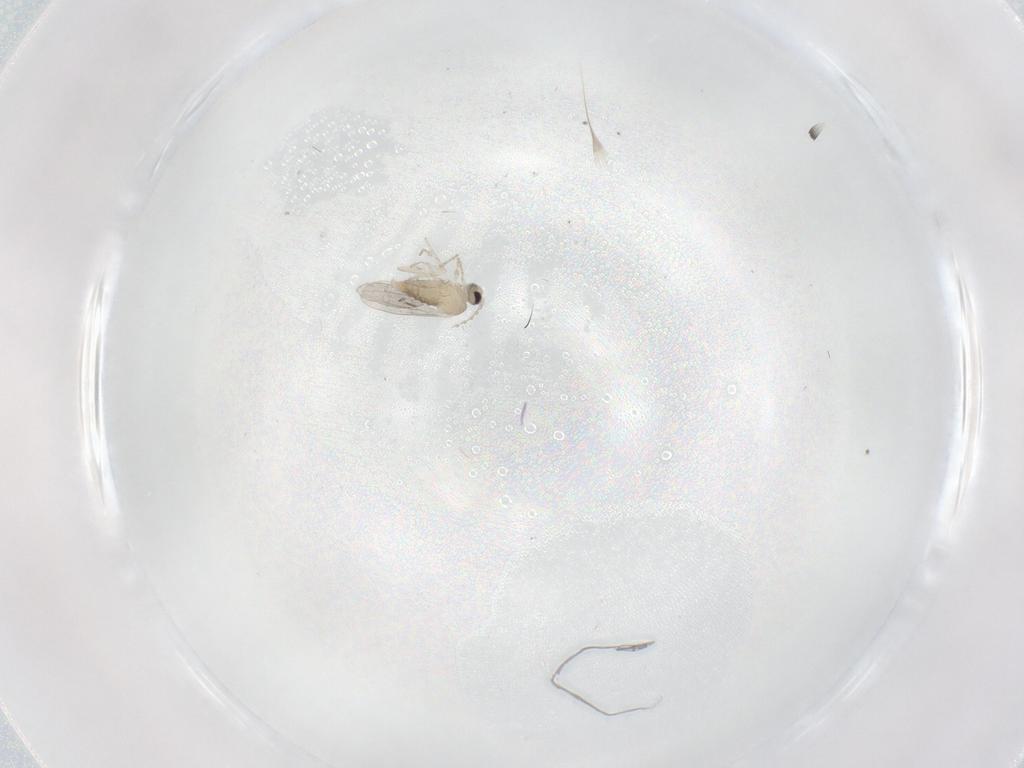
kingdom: Animalia
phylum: Arthropoda
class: Insecta
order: Diptera
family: Cecidomyiidae
